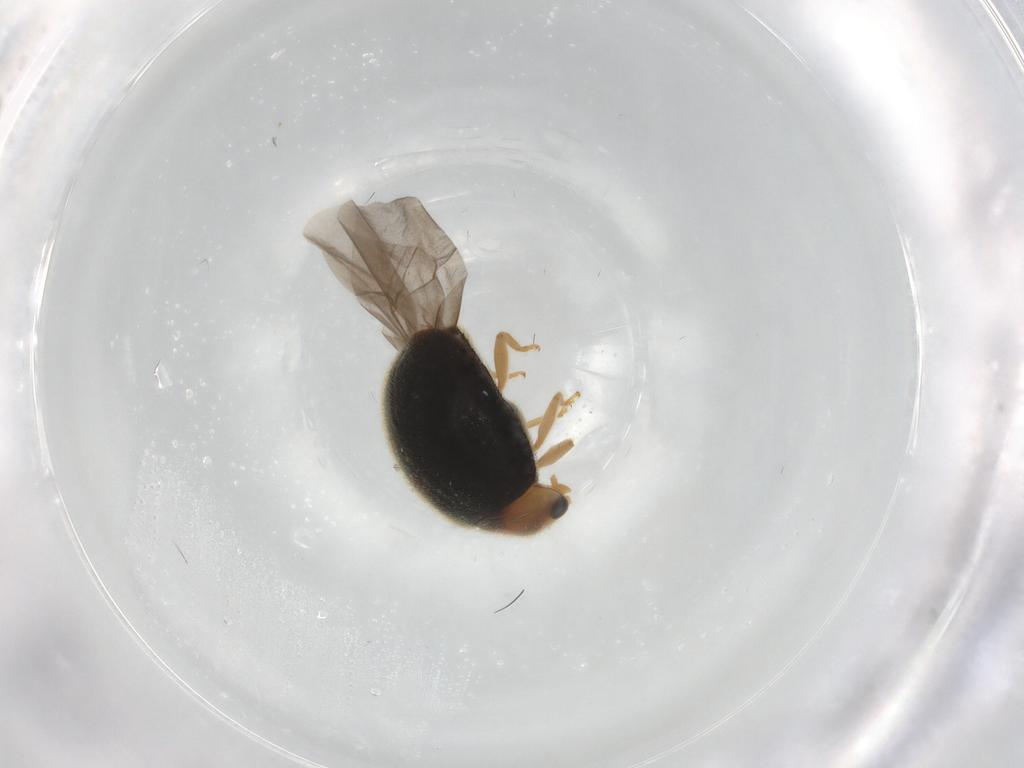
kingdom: Animalia
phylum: Arthropoda
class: Insecta
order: Coleoptera
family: Coccinellidae
